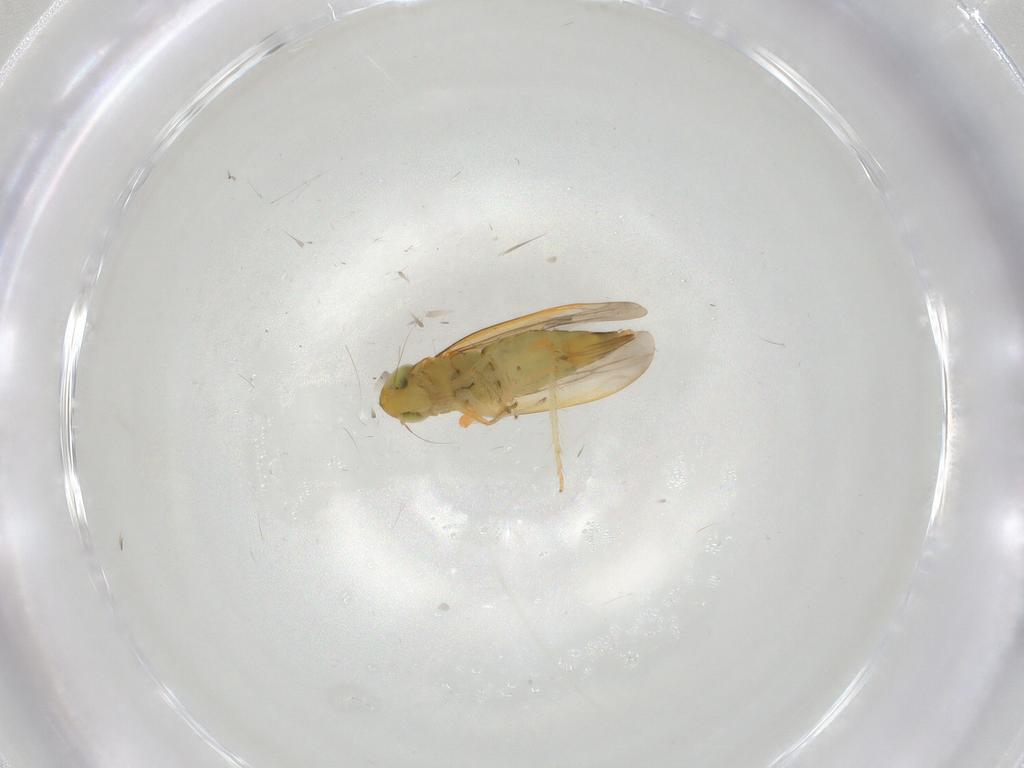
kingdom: Animalia
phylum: Arthropoda
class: Insecta
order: Hemiptera
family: Cicadellidae
